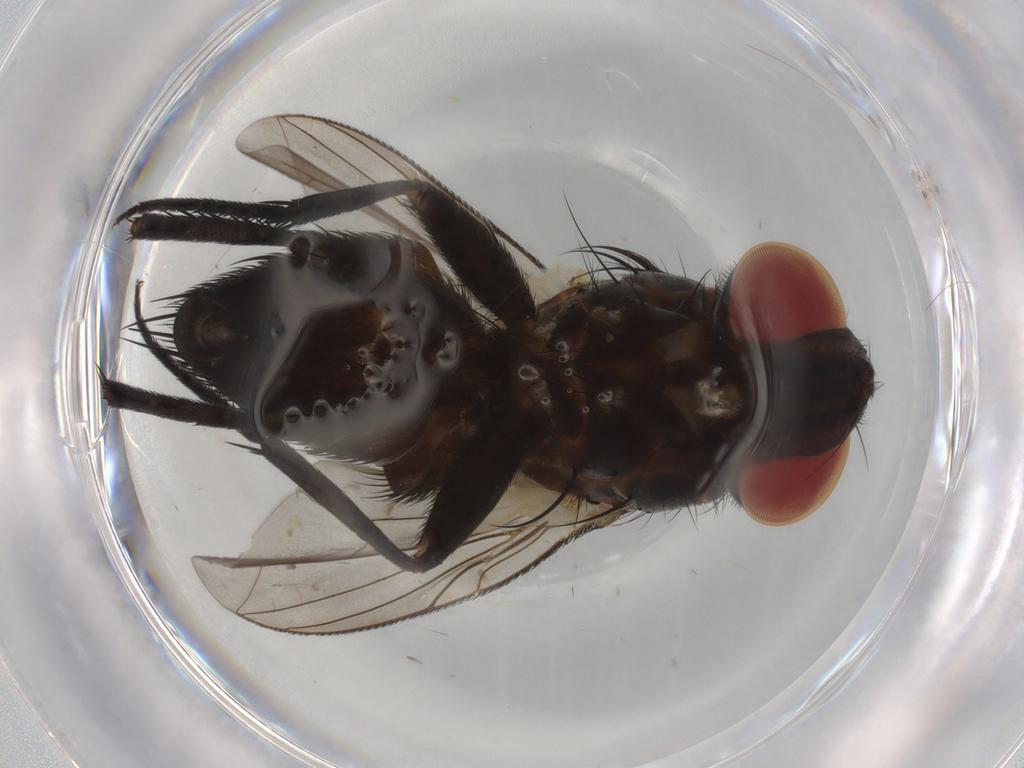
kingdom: Animalia
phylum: Arthropoda
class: Insecta
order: Diptera
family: Sarcophagidae
